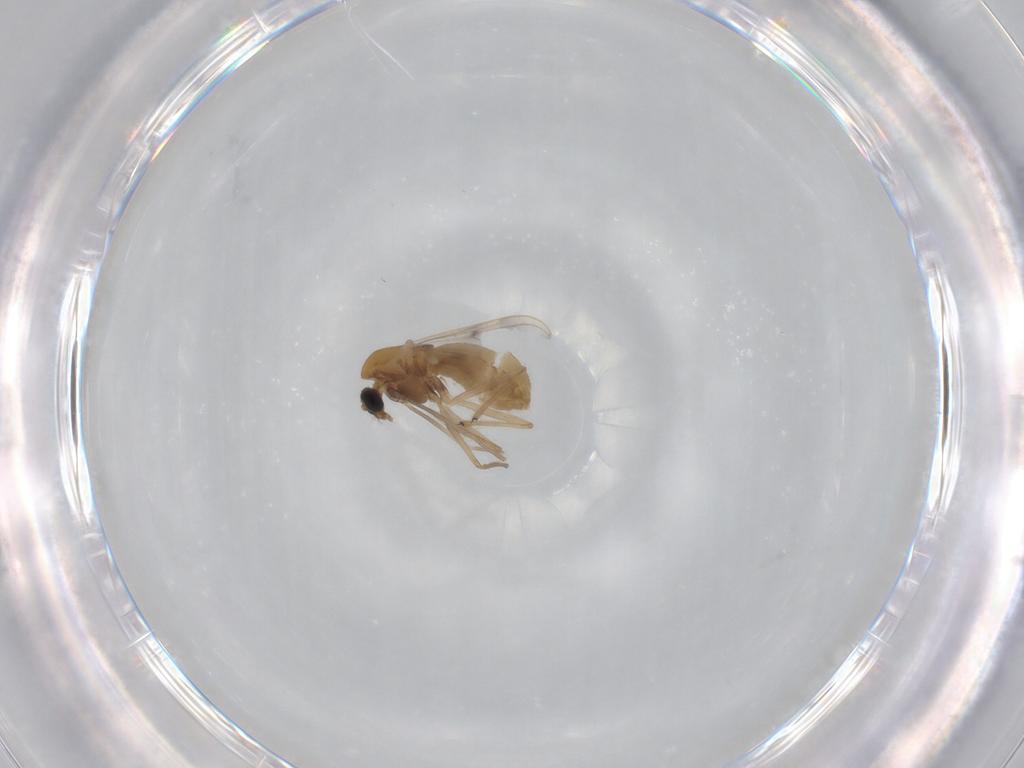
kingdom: Animalia
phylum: Arthropoda
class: Insecta
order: Diptera
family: Chironomidae
